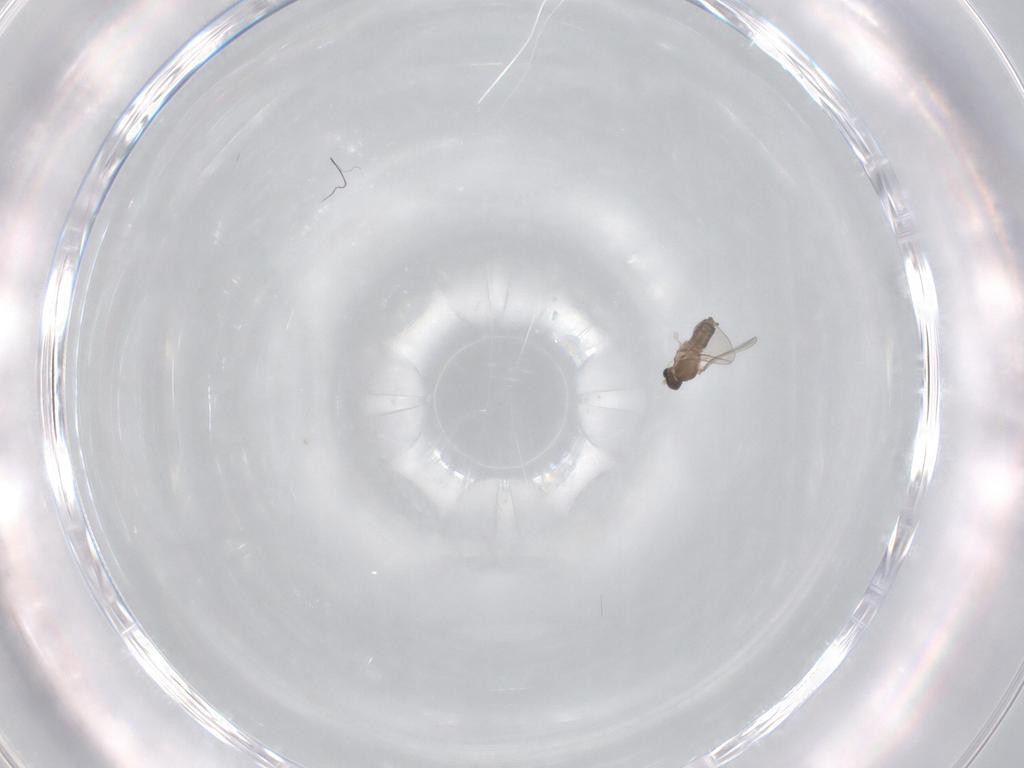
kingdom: Animalia
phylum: Arthropoda
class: Insecta
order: Diptera
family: Cecidomyiidae
